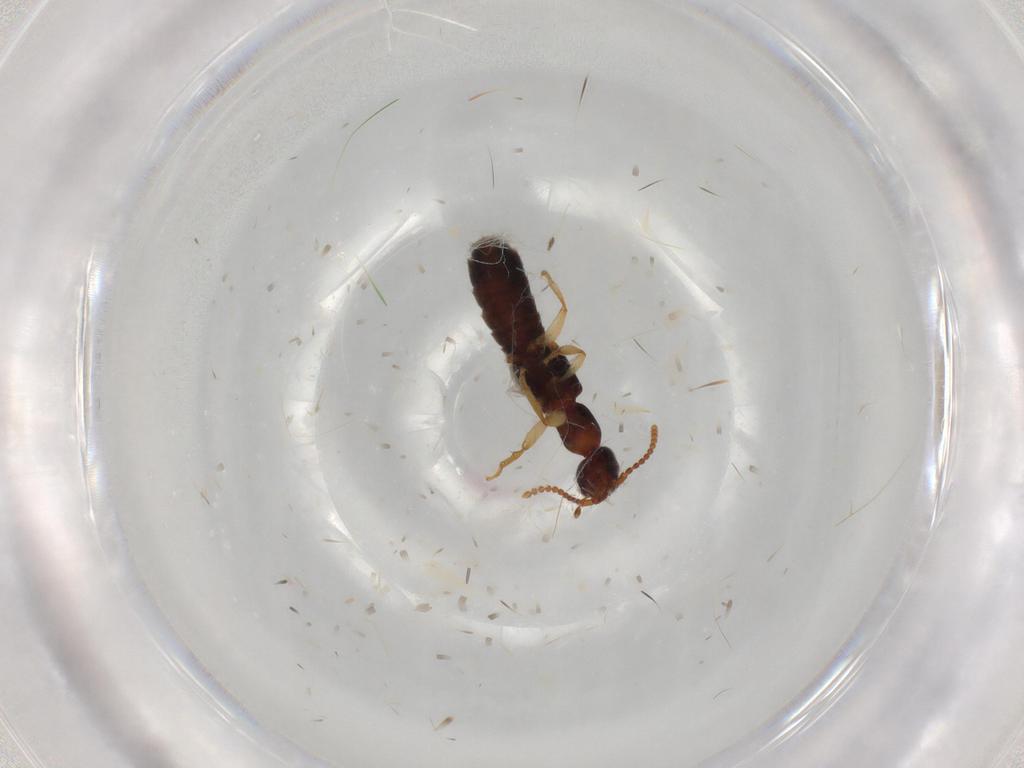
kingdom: Animalia
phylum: Arthropoda
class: Insecta
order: Coleoptera
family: Staphylinidae
